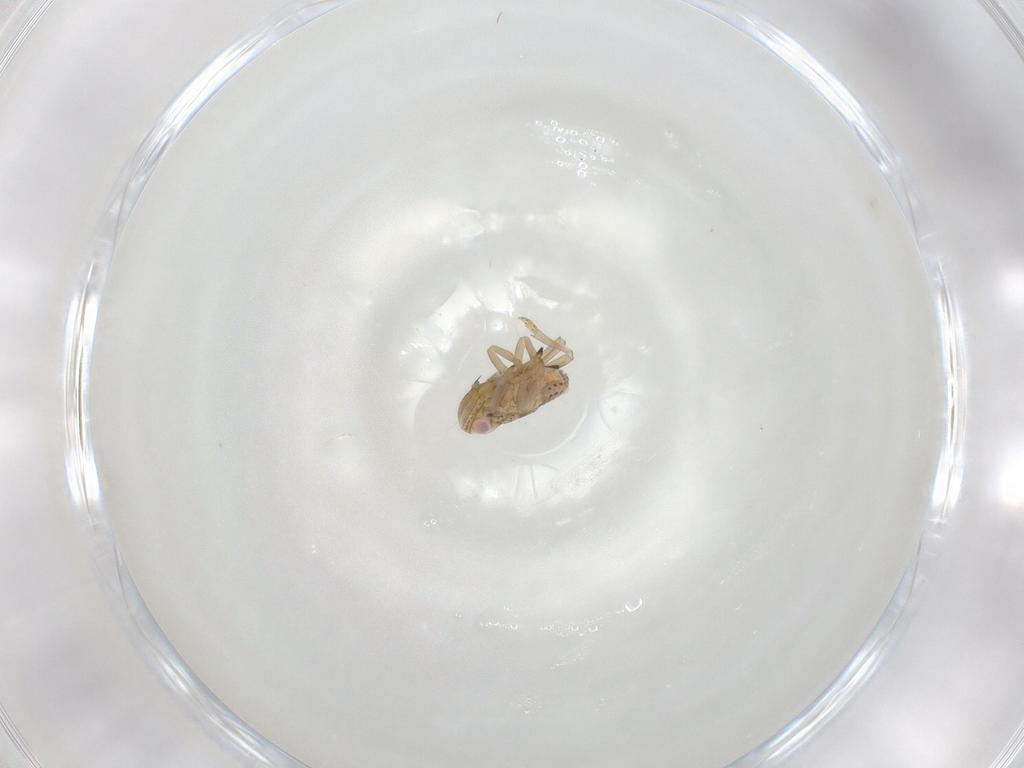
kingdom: Animalia
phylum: Arthropoda
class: Insecta
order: Hemiptera
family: Tropiduchidae
